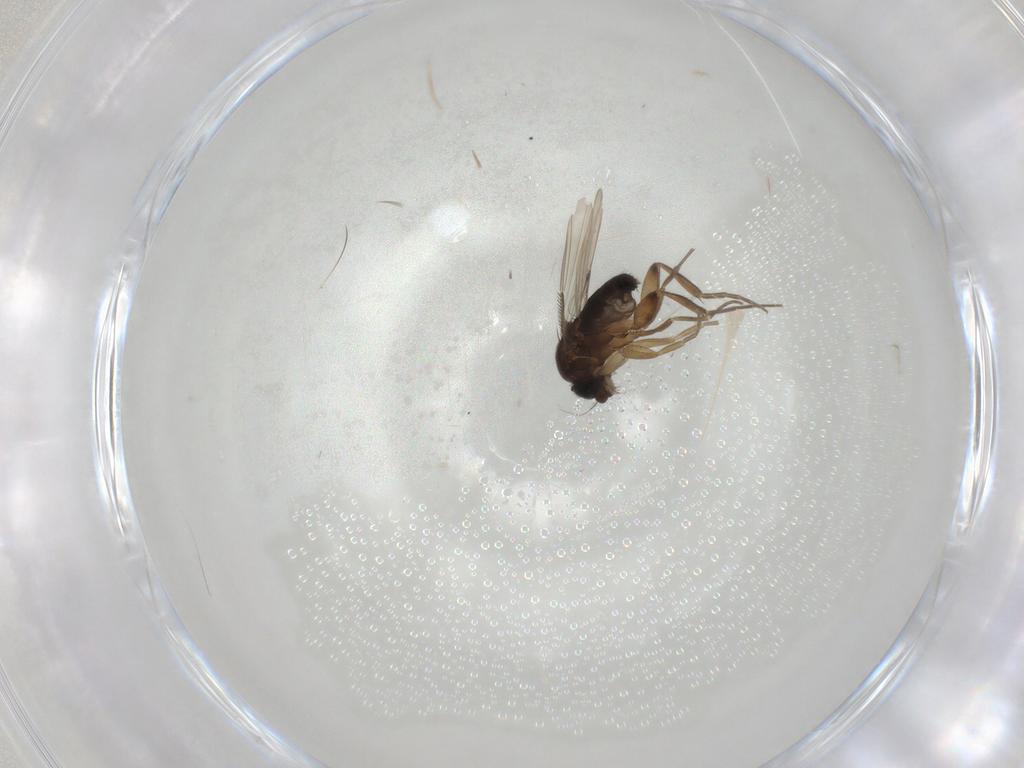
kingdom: Animalia
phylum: Arthropoda
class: Insecta
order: Diptera
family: Phoridae
